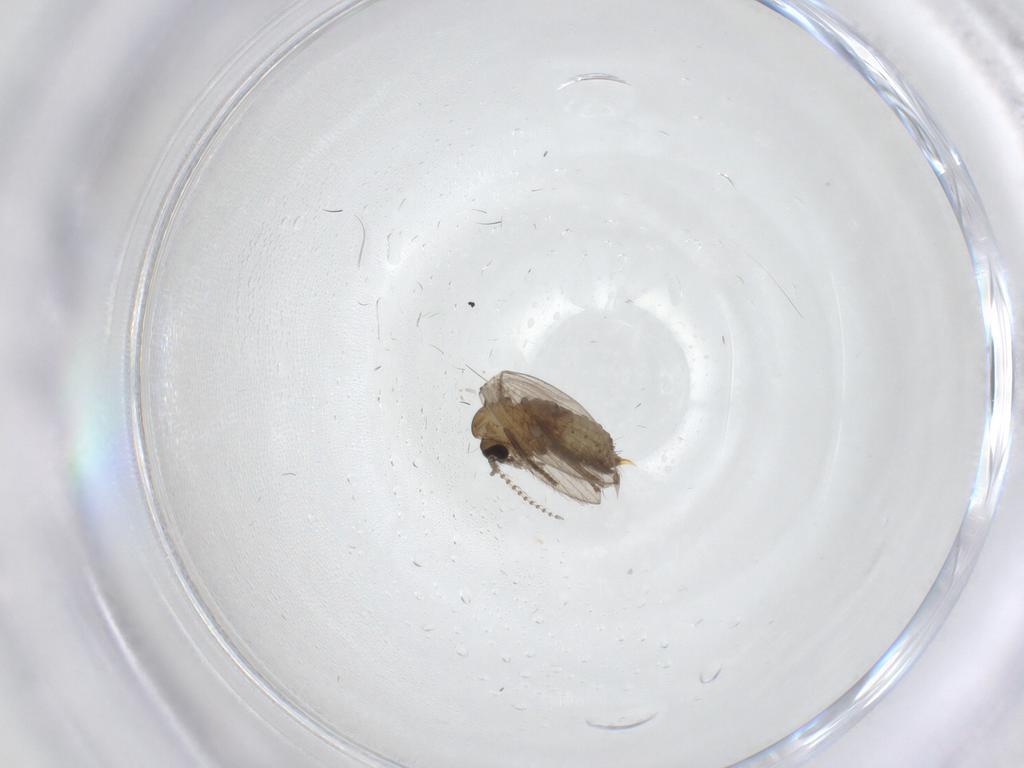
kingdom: Animalia
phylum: Arthropoda
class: Insecta
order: Diptera
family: Psychodidae
